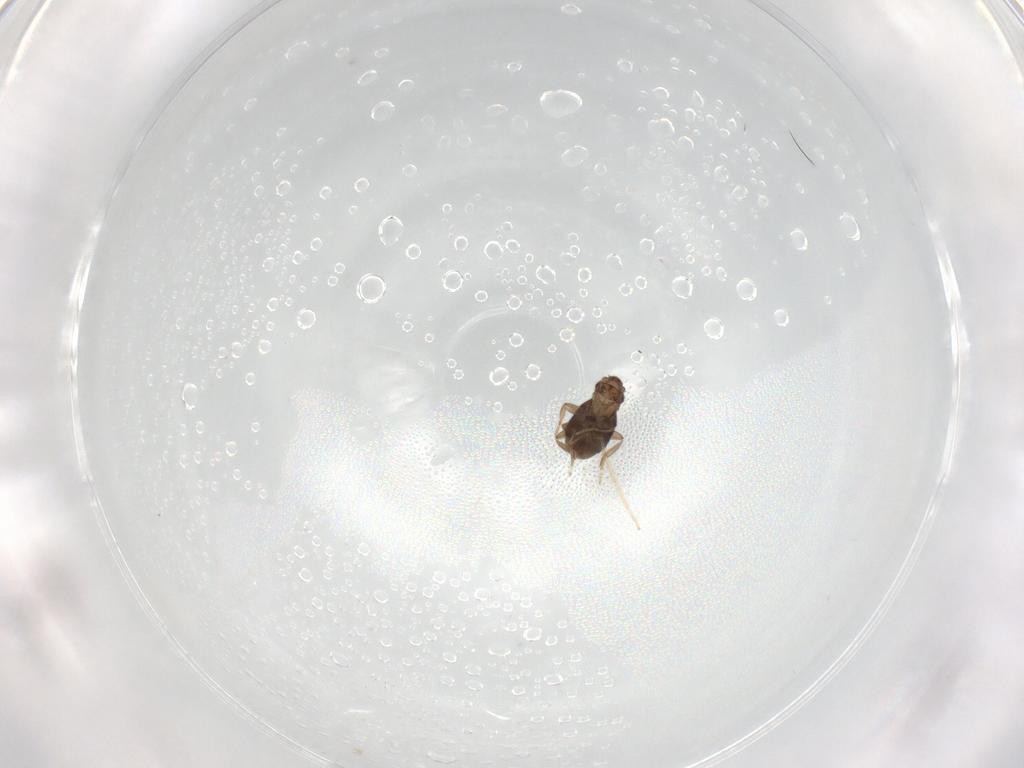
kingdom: Animalia
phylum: Arthropoda
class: Insecta
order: Diptera
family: Chironomidae
